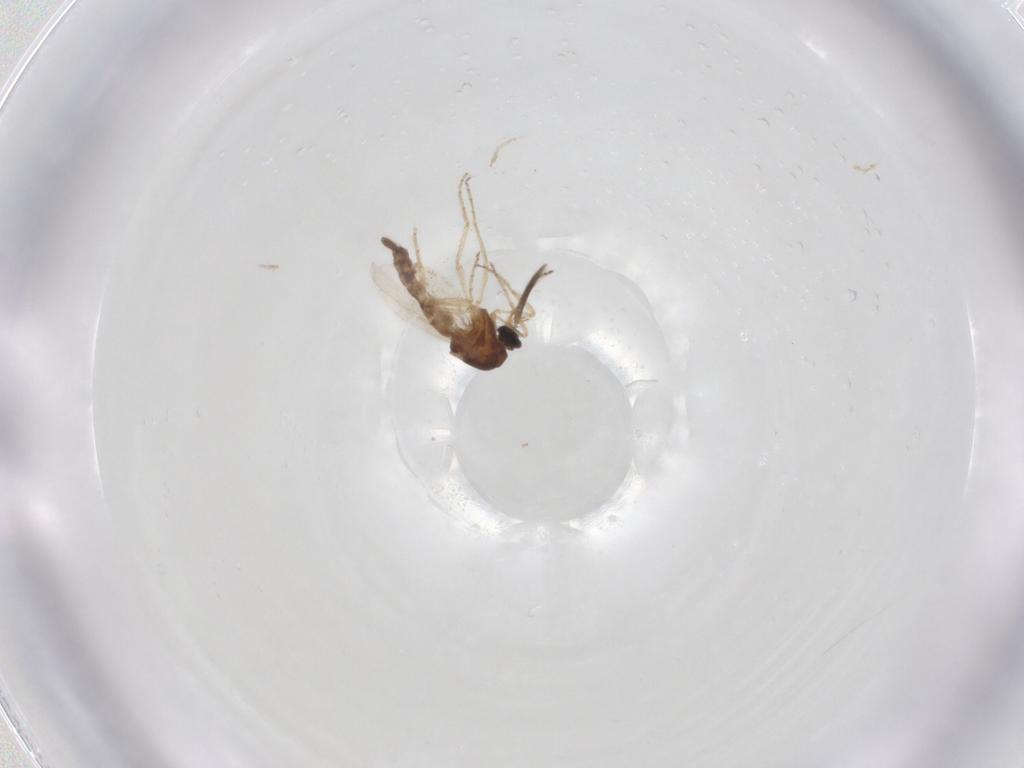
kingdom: Animalia
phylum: Arthropoda
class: Insecta
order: Diptera
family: Ceratopogonidae
